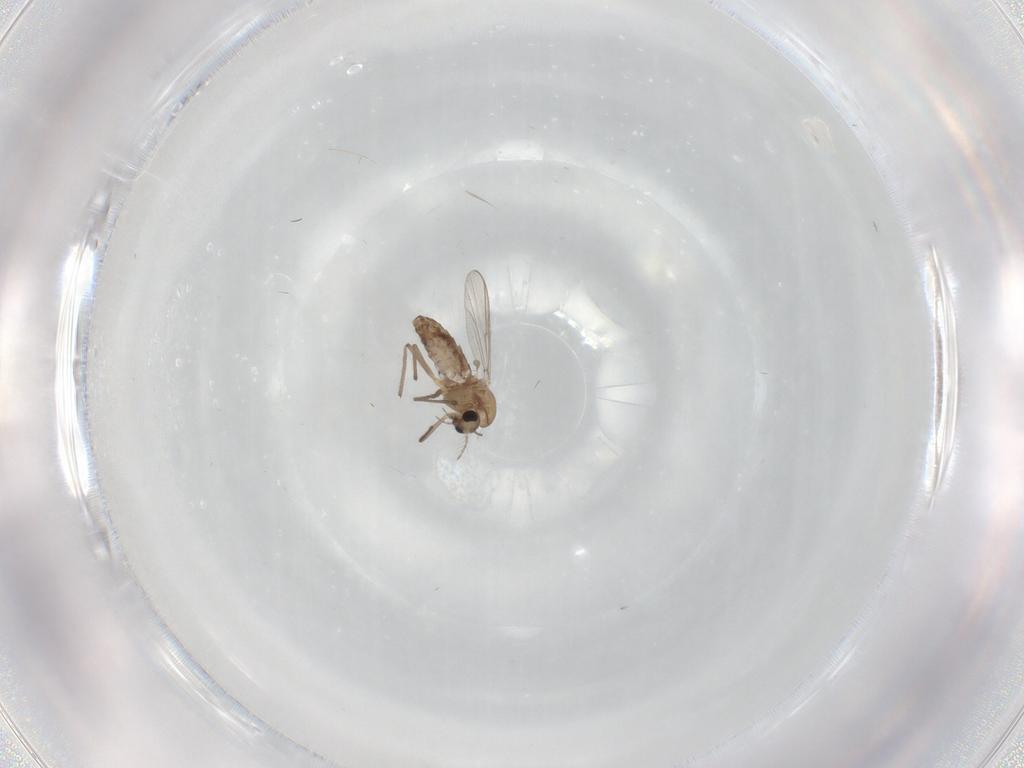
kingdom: Animalia
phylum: Arthropoda
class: Insecta
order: Diptera
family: Chironomidae
